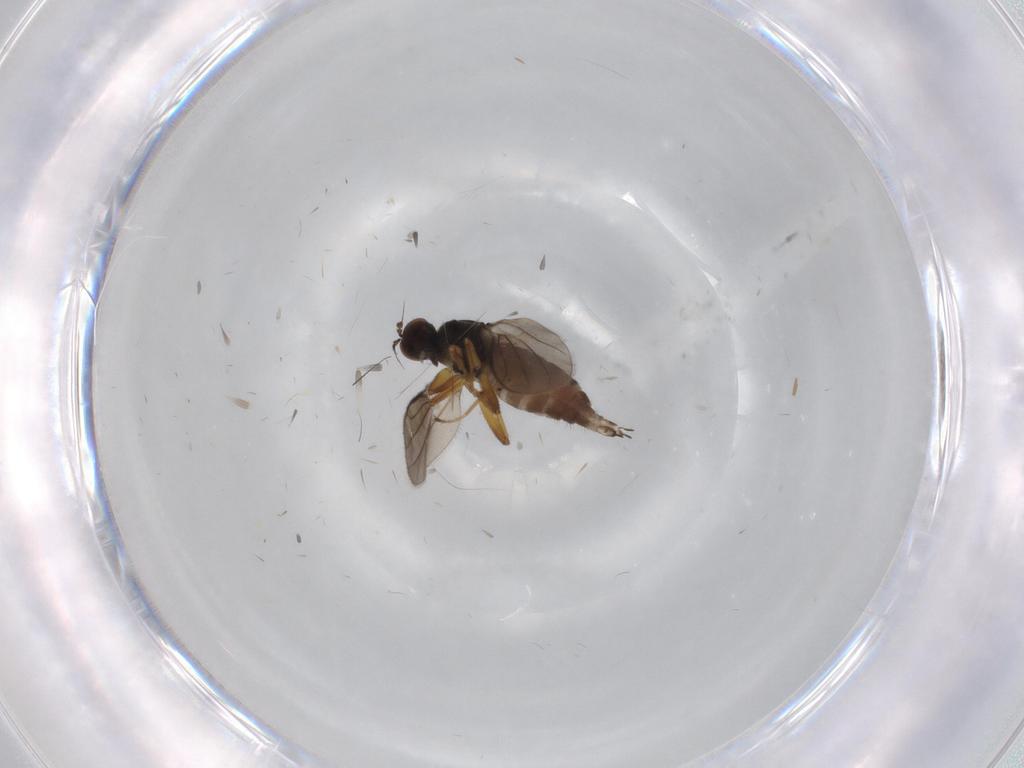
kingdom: Animalia
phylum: Arthropoda
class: Insecta
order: Diptera
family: Hybotidae
